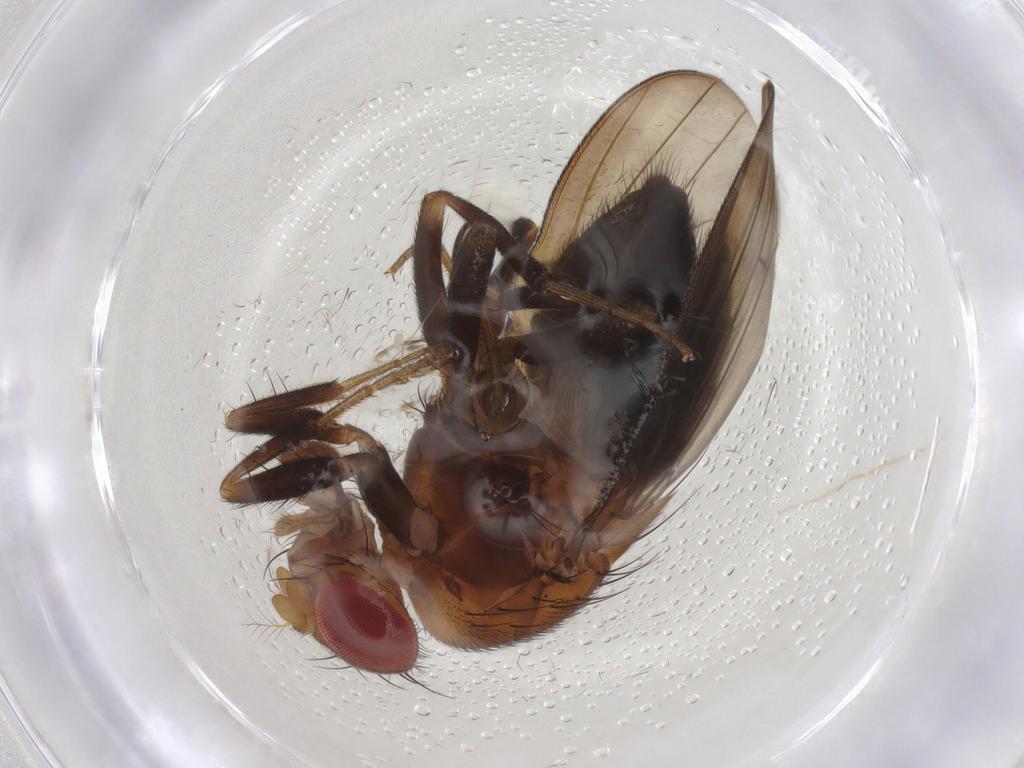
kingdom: Animalia
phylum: Arthropoda
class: Insecta
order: Diptera
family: Drosophilidae
